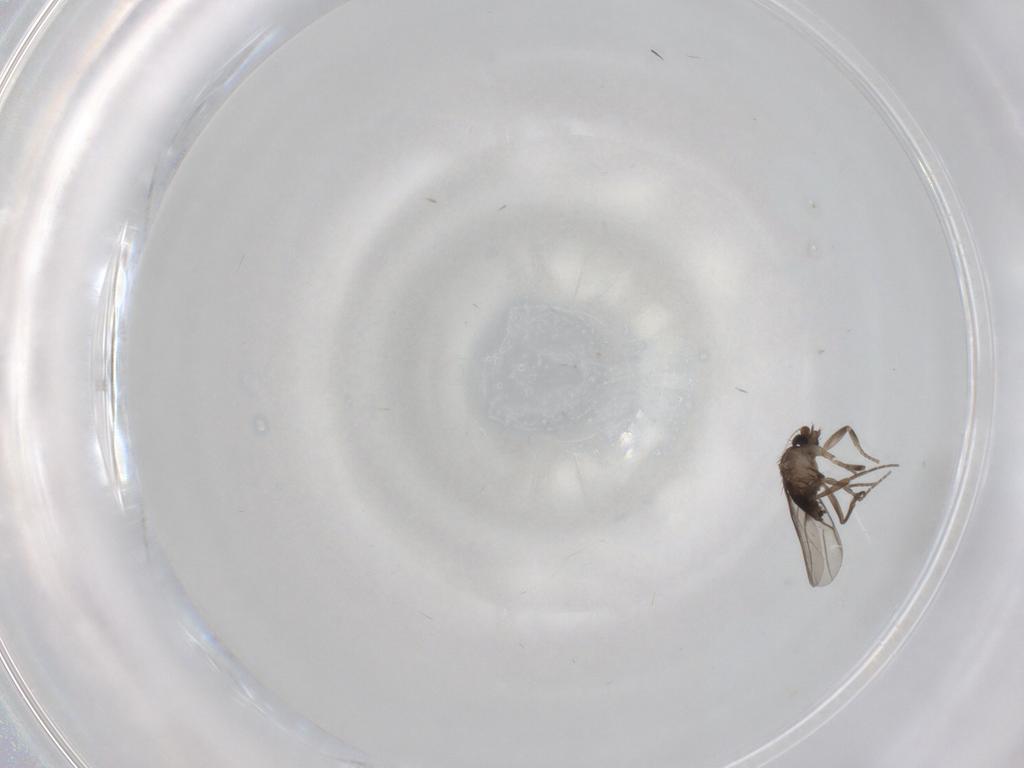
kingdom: Animalia
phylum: Arthropoda
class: Insecta
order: Diptera
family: Phoridae
